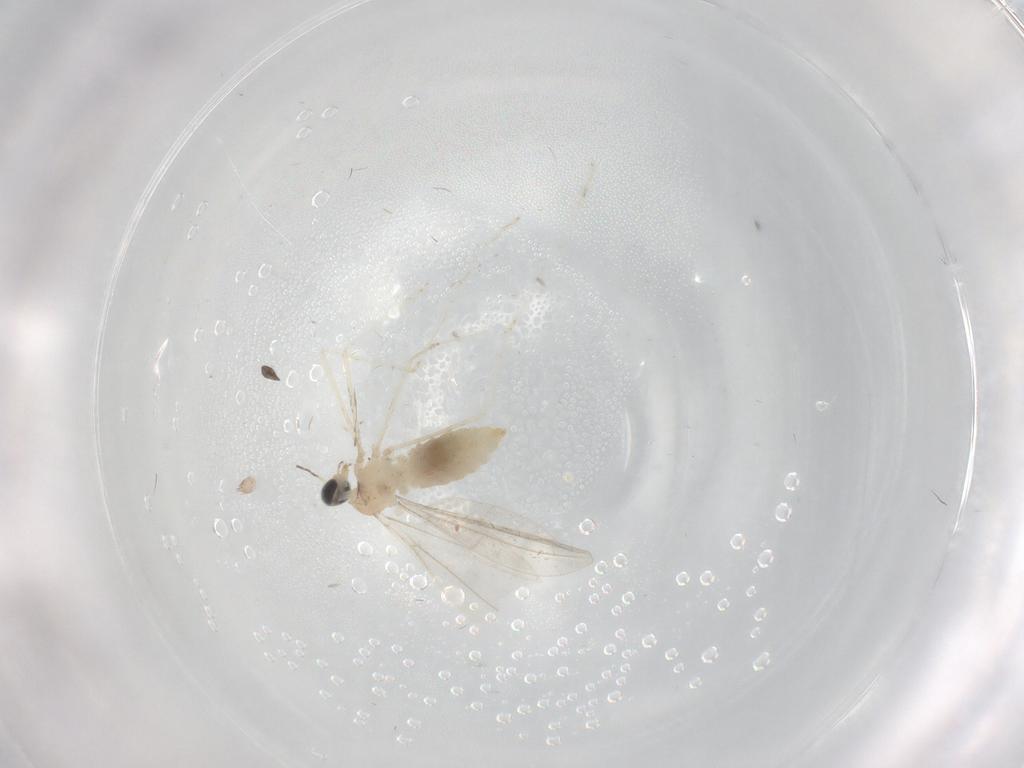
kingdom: Animalia
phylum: Arthropoda
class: Insecta
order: Diptera
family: Cecidomyiidae
